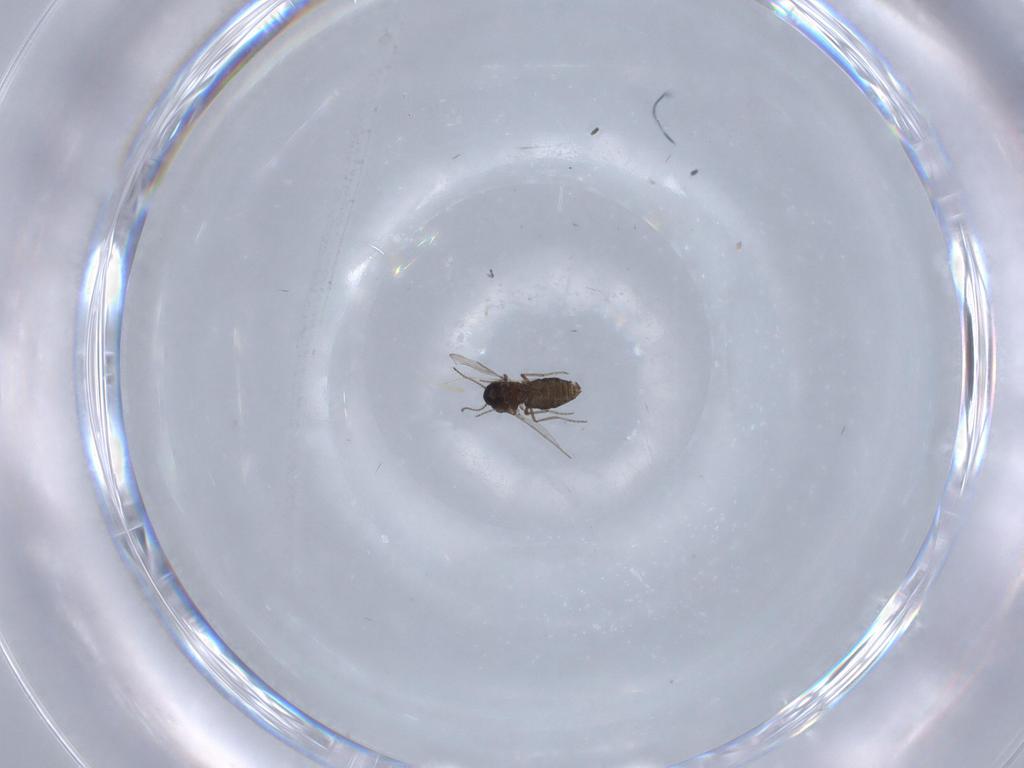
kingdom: Animalia
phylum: Arthropoda
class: Insecta
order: Diptera
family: Ceratopogonidae
